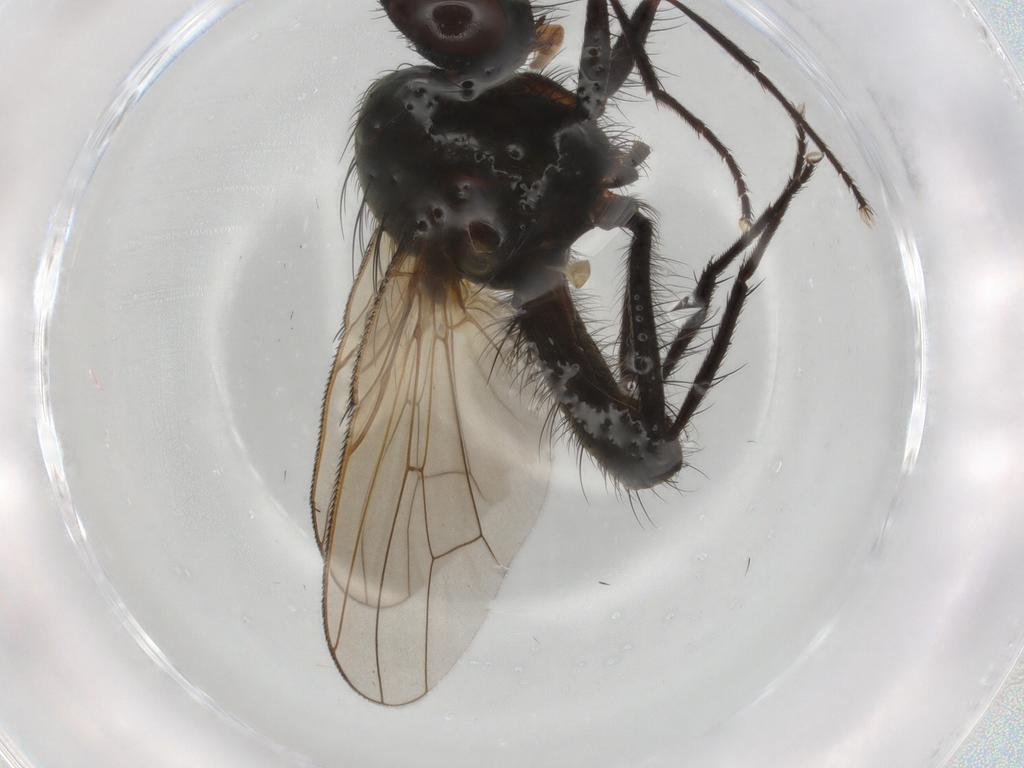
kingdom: Animalia
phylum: Arthropoda
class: Insecta
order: Diptera
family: Anthomyiidae
